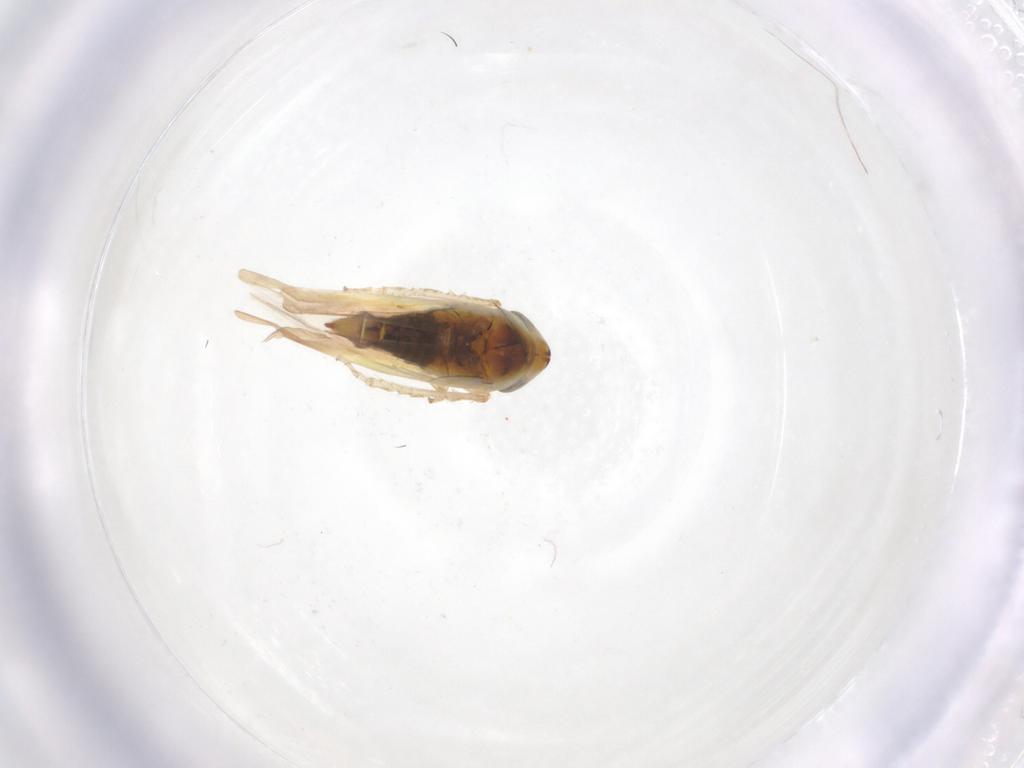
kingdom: Animalia
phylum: Arthropoda
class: Insecta
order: Hemiptera
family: Cicadellidae
